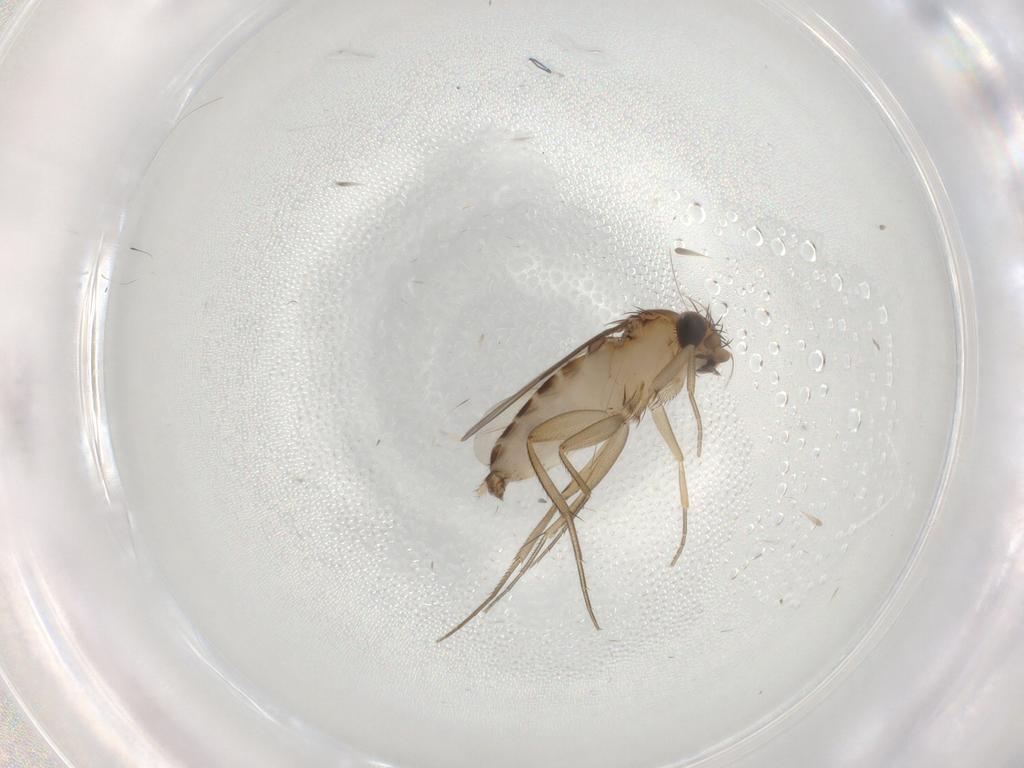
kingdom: Animalia
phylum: Arthropoda
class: Insecta
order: Diptera
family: Phoridae
